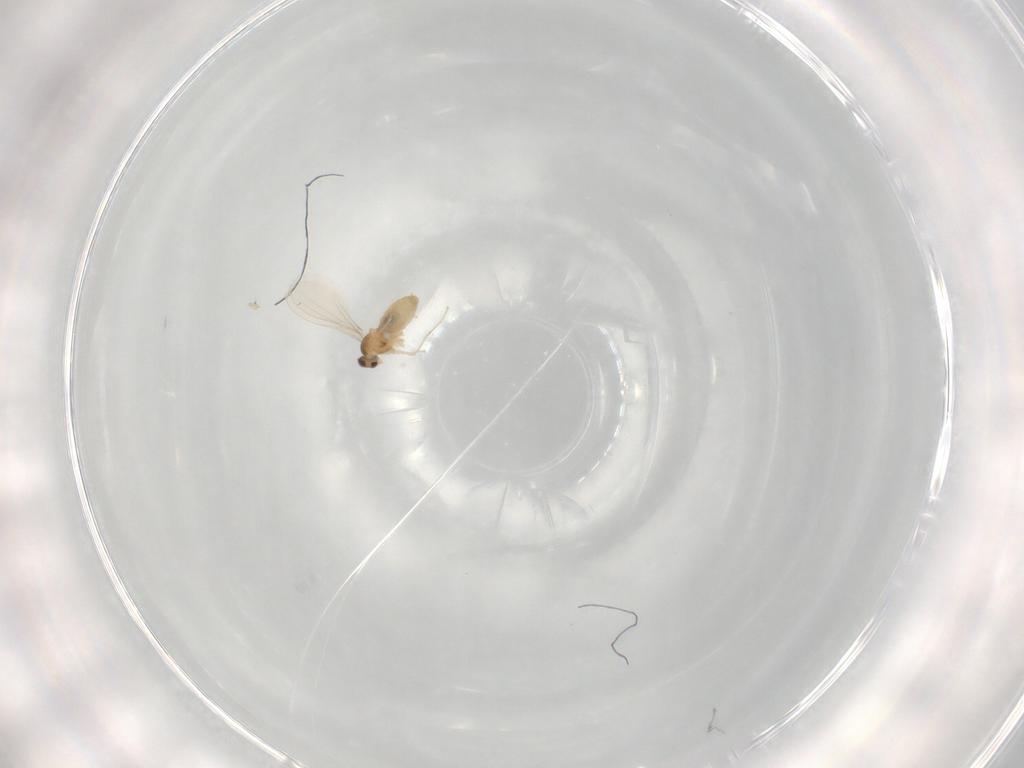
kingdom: Animalia
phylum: Arthropoda
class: Insecta
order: Diptera
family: Cecidomyiidae
